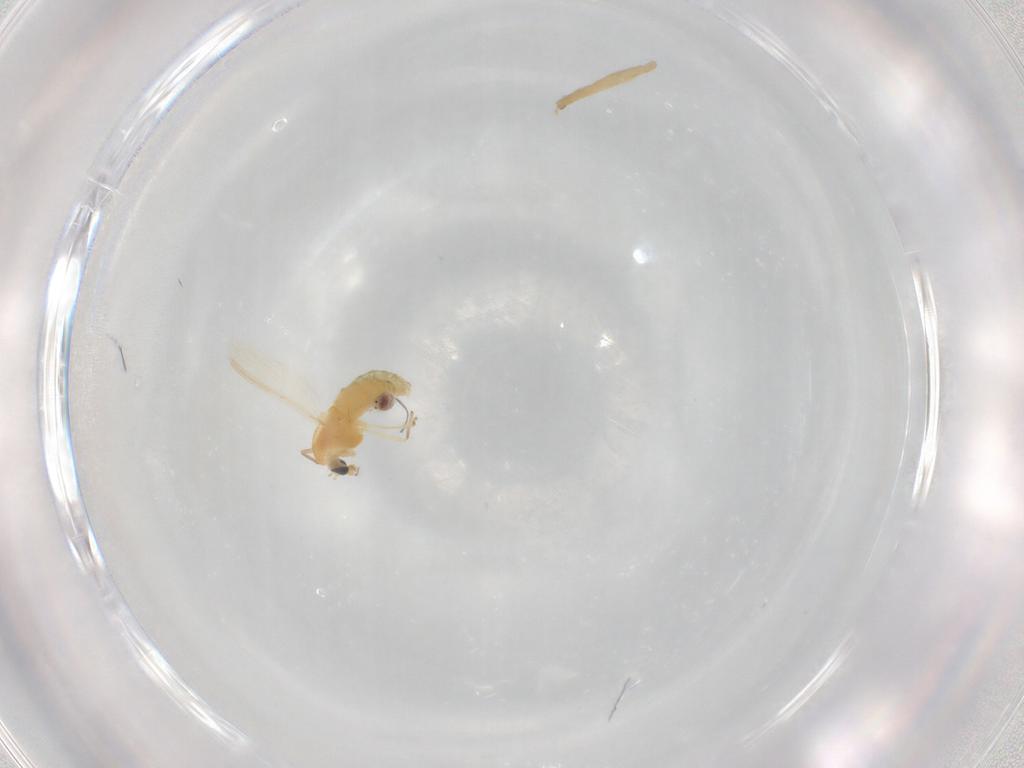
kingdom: Animalia
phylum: Arthropoda
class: Insecta
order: Diptera
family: Chironomidae
